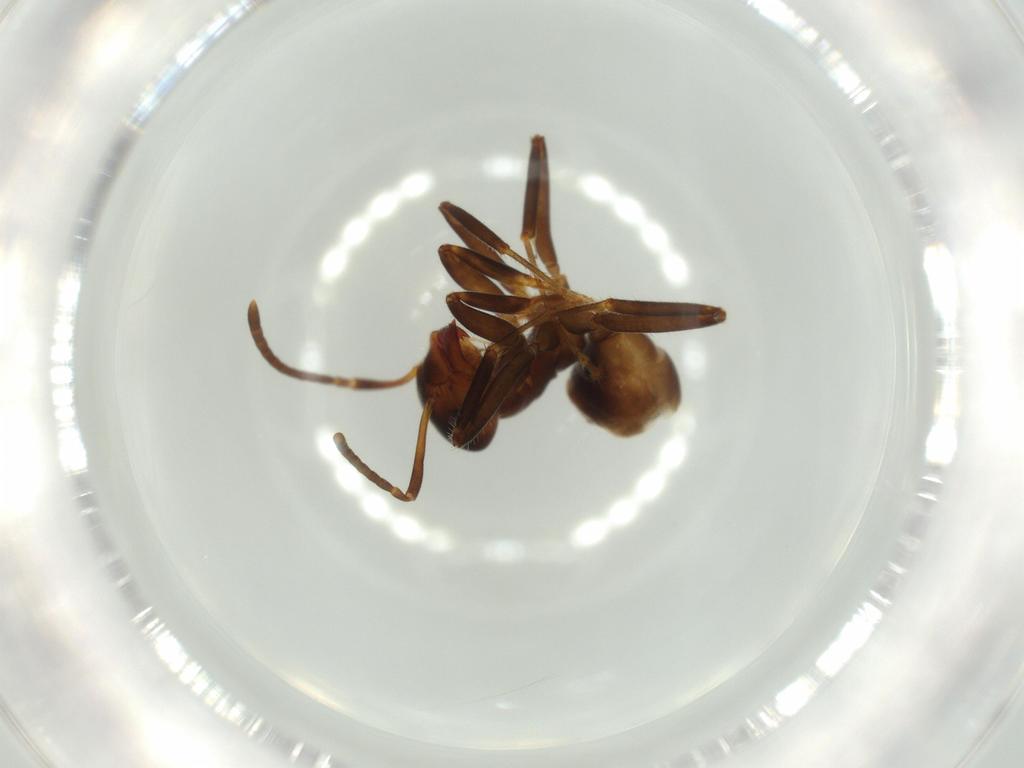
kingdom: Animalia
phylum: Arthropoda
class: Insecta
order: Hymenoptera
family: Formicidae
